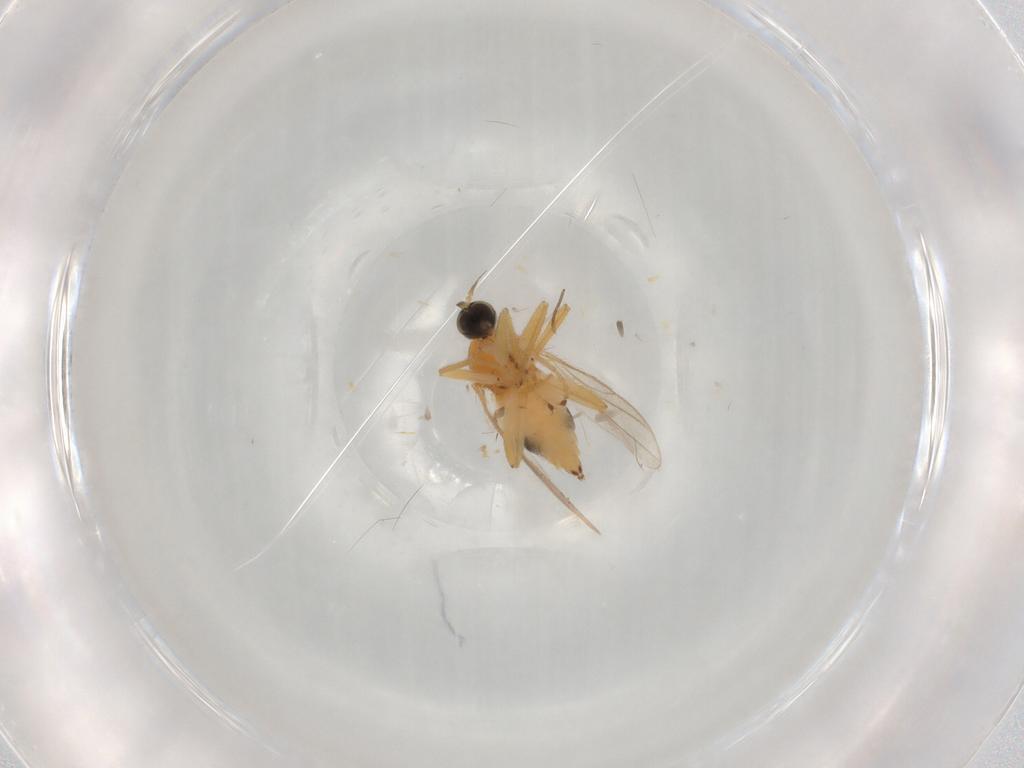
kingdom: Animalia
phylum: Arthropoda
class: Insecta
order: Diptera
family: Hybotidae
